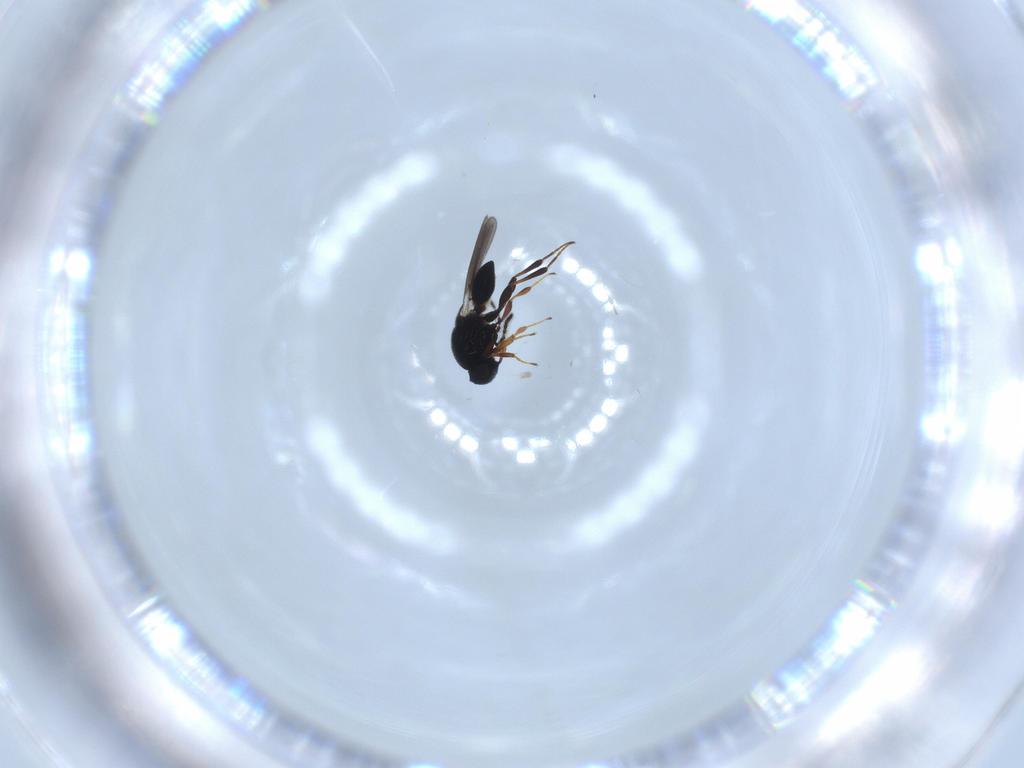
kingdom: Animalia
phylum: Arthropoda
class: Insecta
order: Hymenoptera
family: Platygastridae
